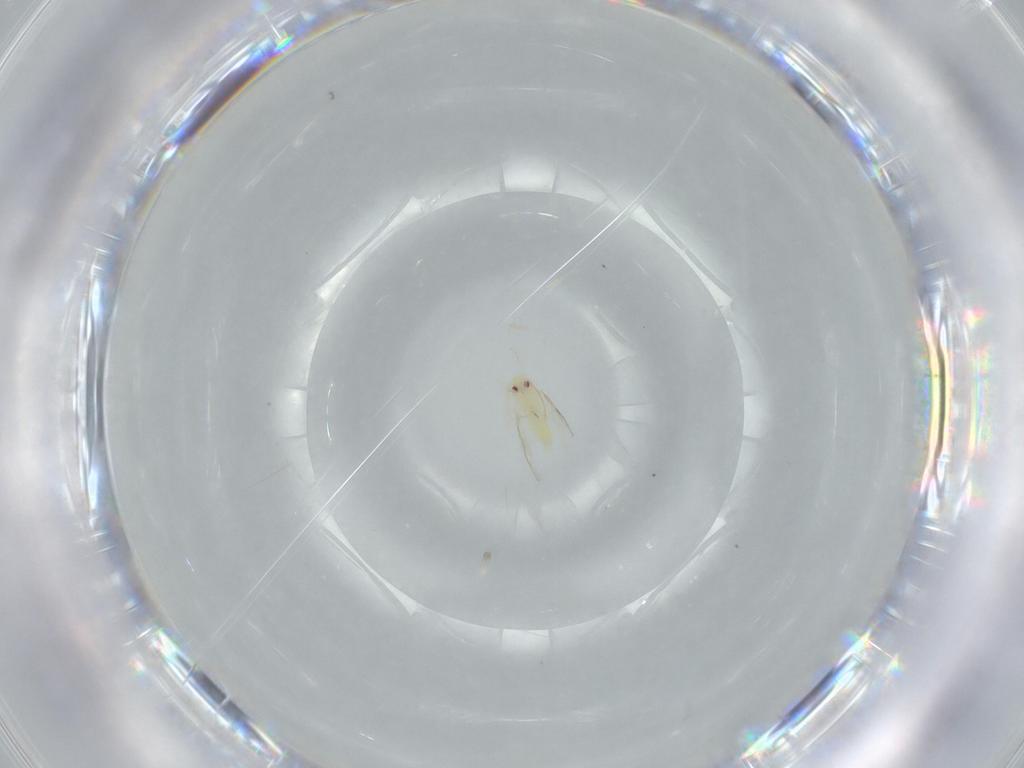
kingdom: Animalia
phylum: Arthropoda
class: Insecta
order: Hemiptera
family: Aleyrodidae
